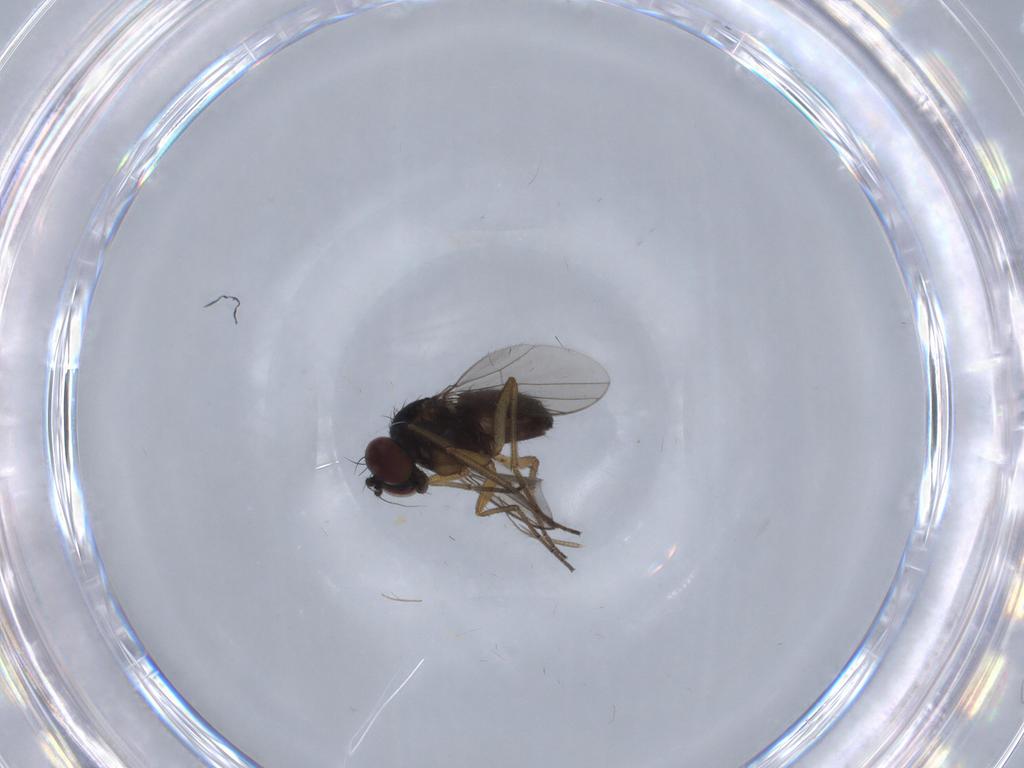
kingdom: Animalia
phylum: Arthropoda
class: Insecta
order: Diptera
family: Dolichopodidae
